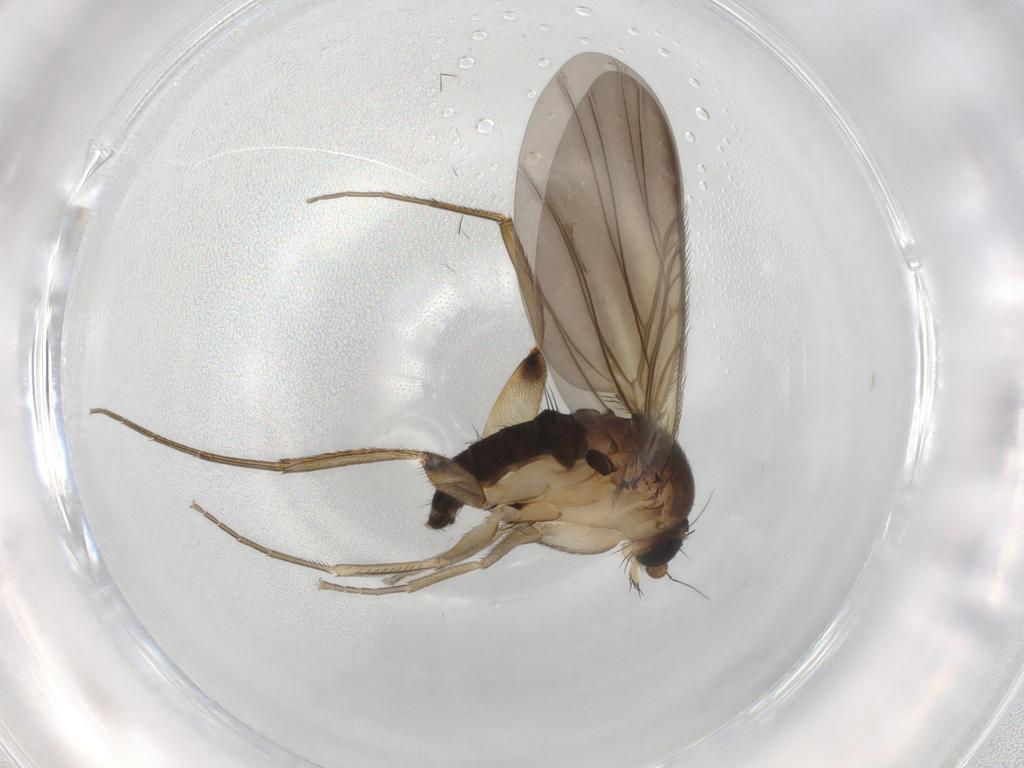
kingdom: Animalia
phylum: Arthropoda
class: Insecta
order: Diptera
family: Phoridae
